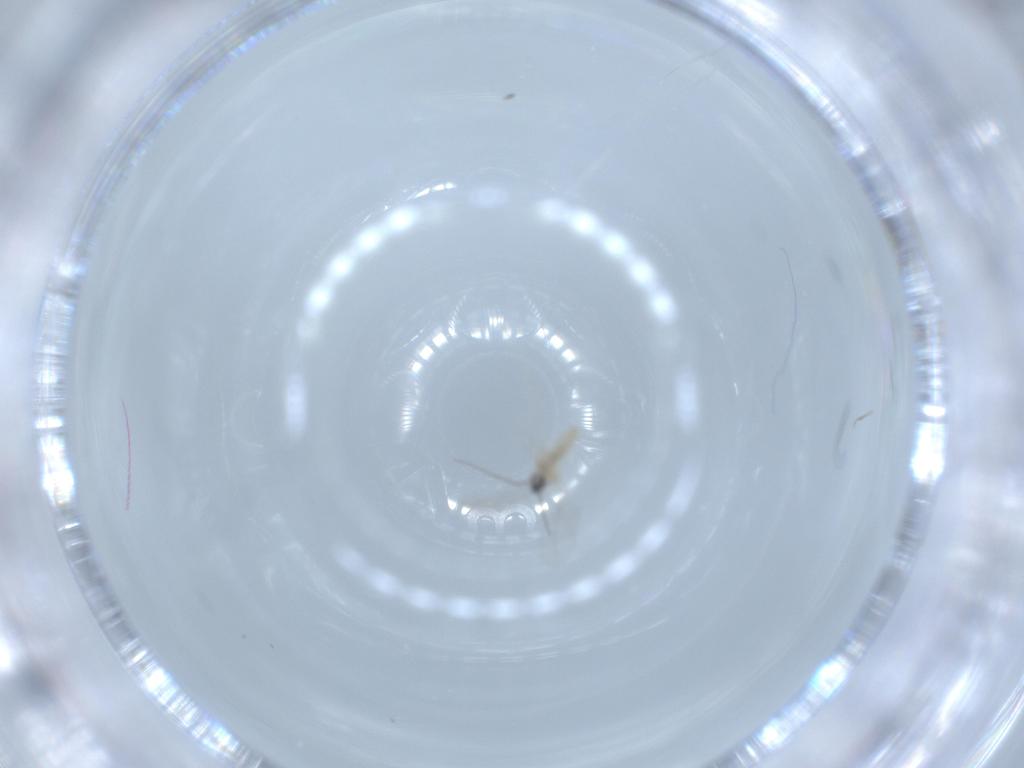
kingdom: Animalia
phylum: Arthropoda
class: Insecta
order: Diptera
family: Cecidomyiidae
